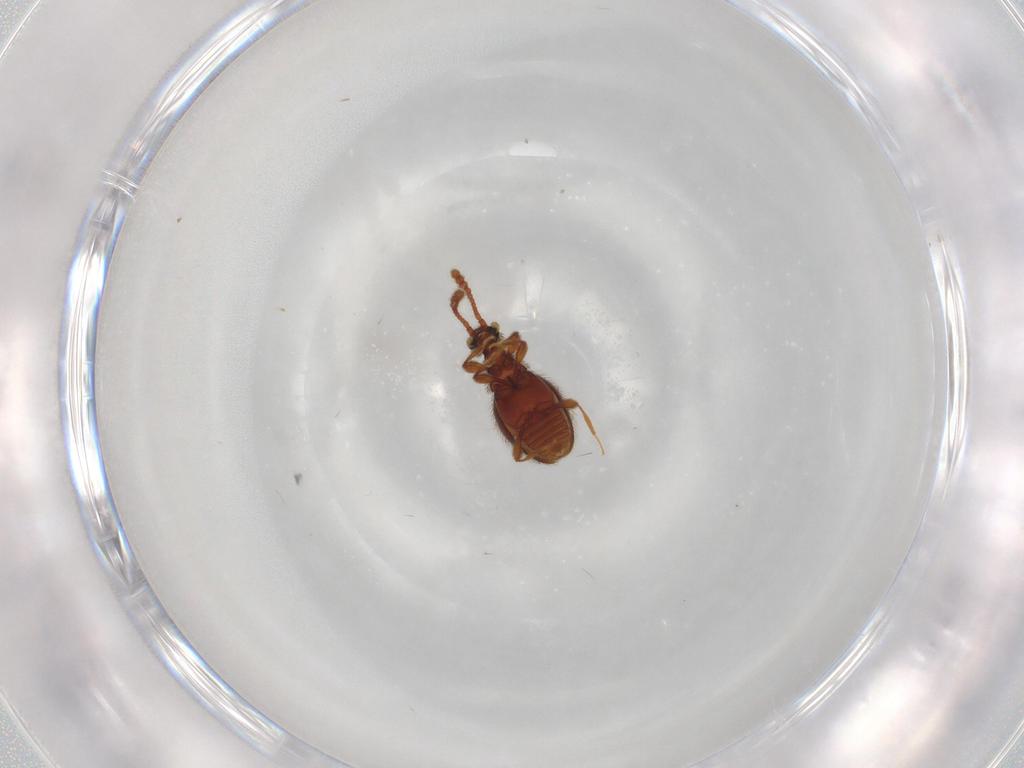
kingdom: Animalia
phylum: Arthropoda
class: Insecta
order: Coleoptera
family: Staphylinidae
